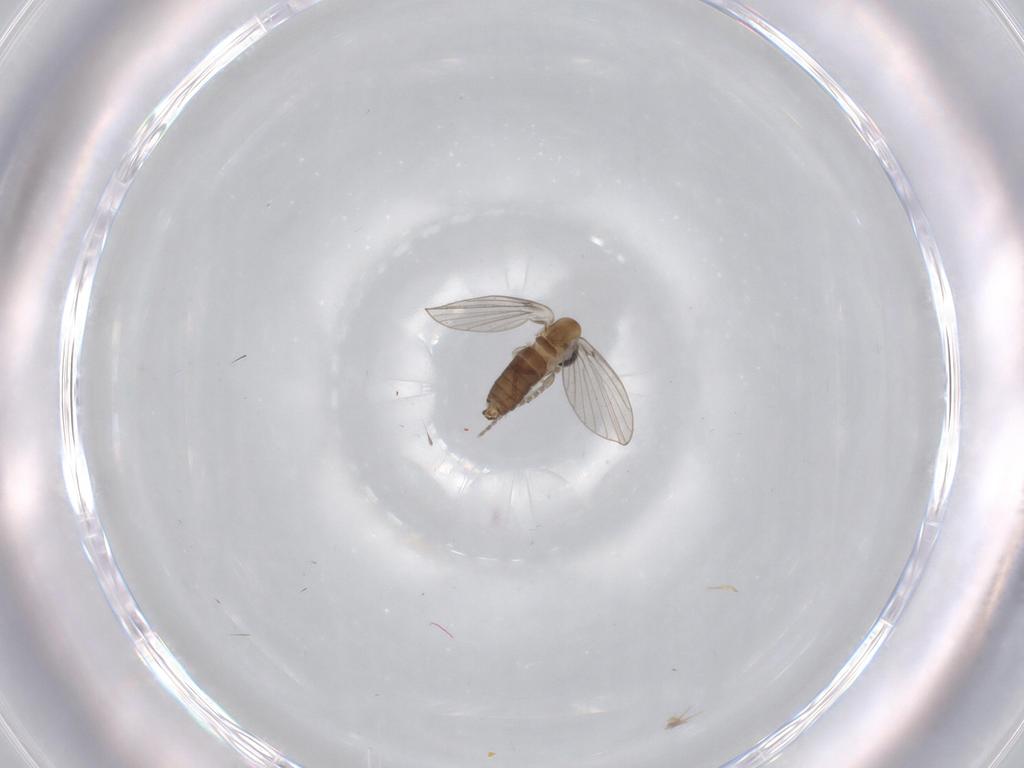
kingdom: Animalia
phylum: Arthropoda
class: Insecta
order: Diptera
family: Psychodidae
